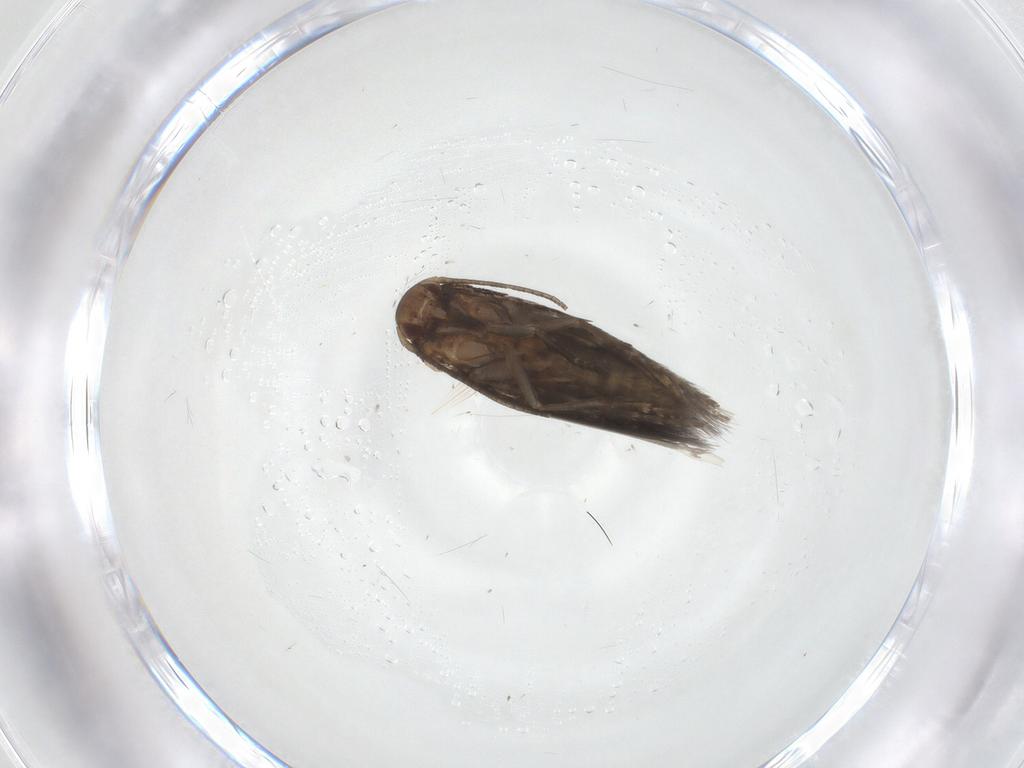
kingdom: Animalia
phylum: Arthropoda
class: Insecta
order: Lepidoptera
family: Elachistidae
